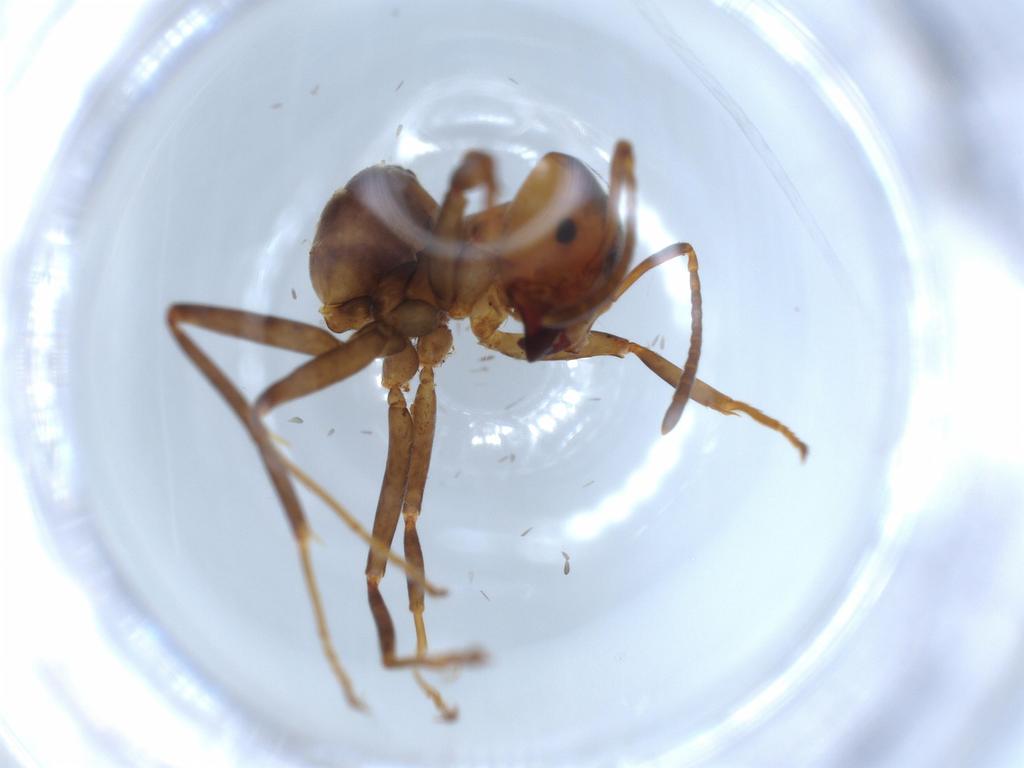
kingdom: Animalia
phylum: Arthropoda
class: Insecta
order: Hymenoptera
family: Formicidae
